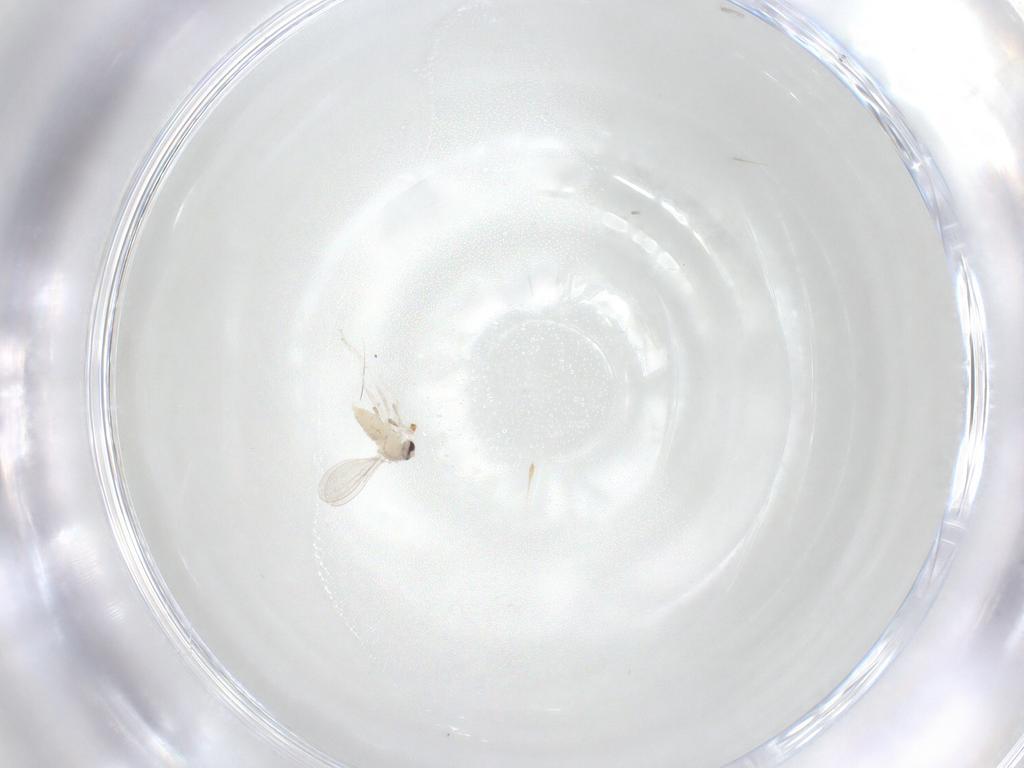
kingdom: Animalia
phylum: Arthropoda
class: Insecta
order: Diptera
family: Cecidomyiidae
